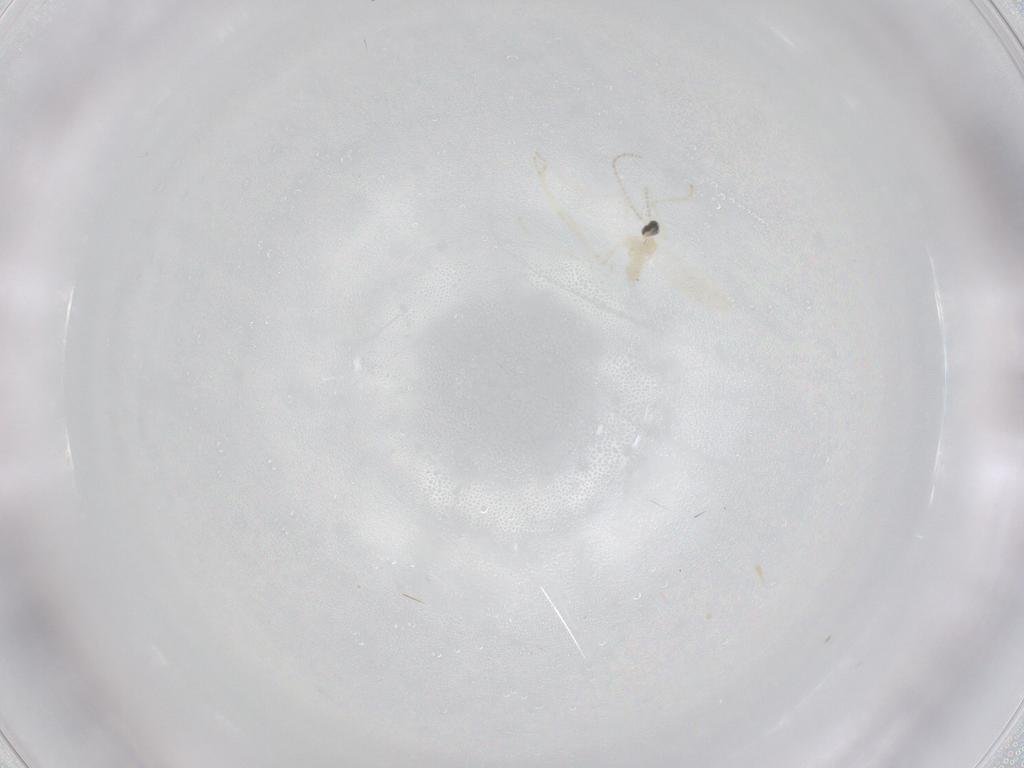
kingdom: Animalia
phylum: Arthropoda
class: Insecta
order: Diptera
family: Cecidomyiidae
